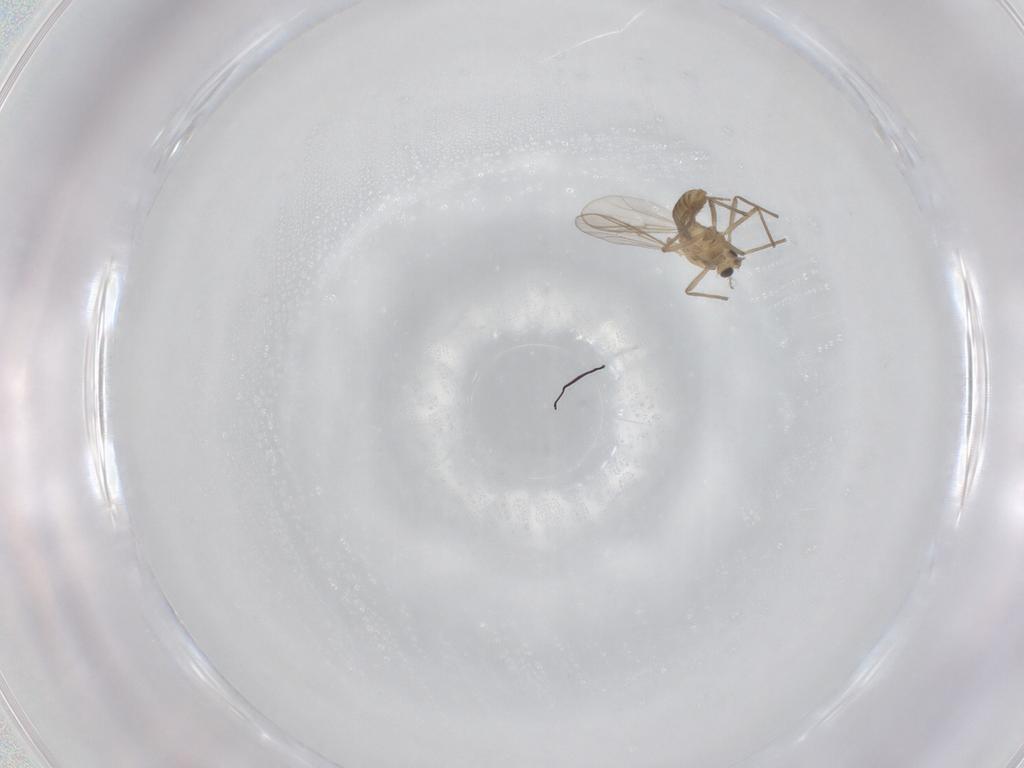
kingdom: Animalia
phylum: Arthropoda
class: Insecta
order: Diptera
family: Chironomidae
